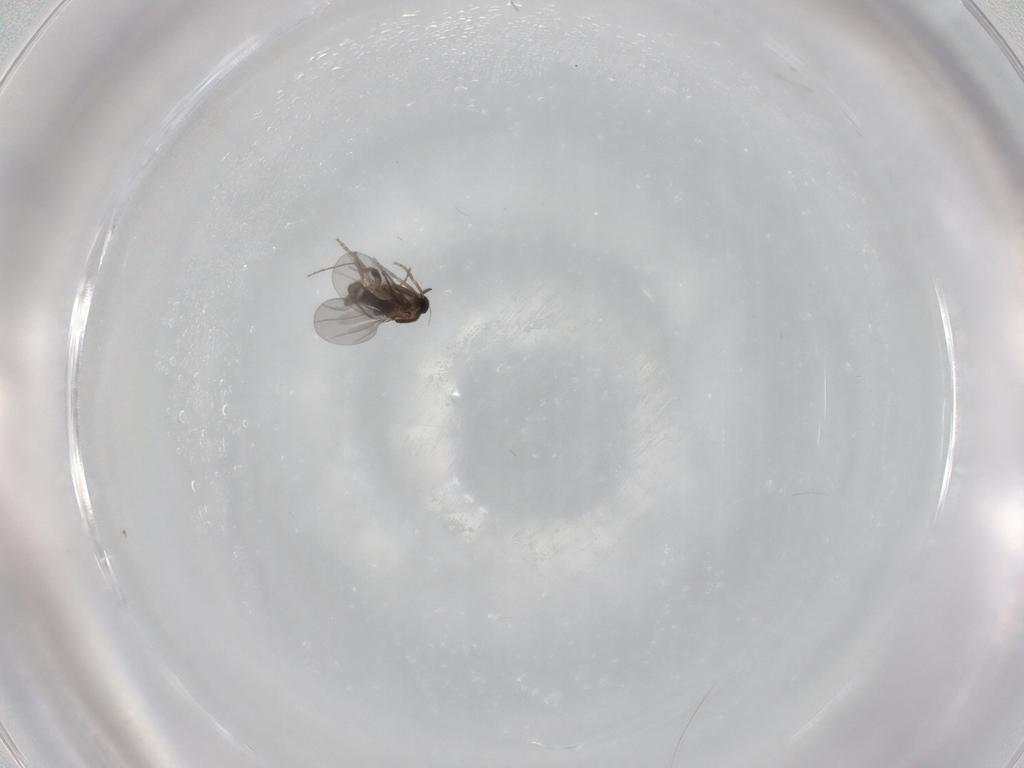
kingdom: Animalia
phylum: Arthropoda
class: Insecta
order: Diptera
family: Ceratopogonidae
